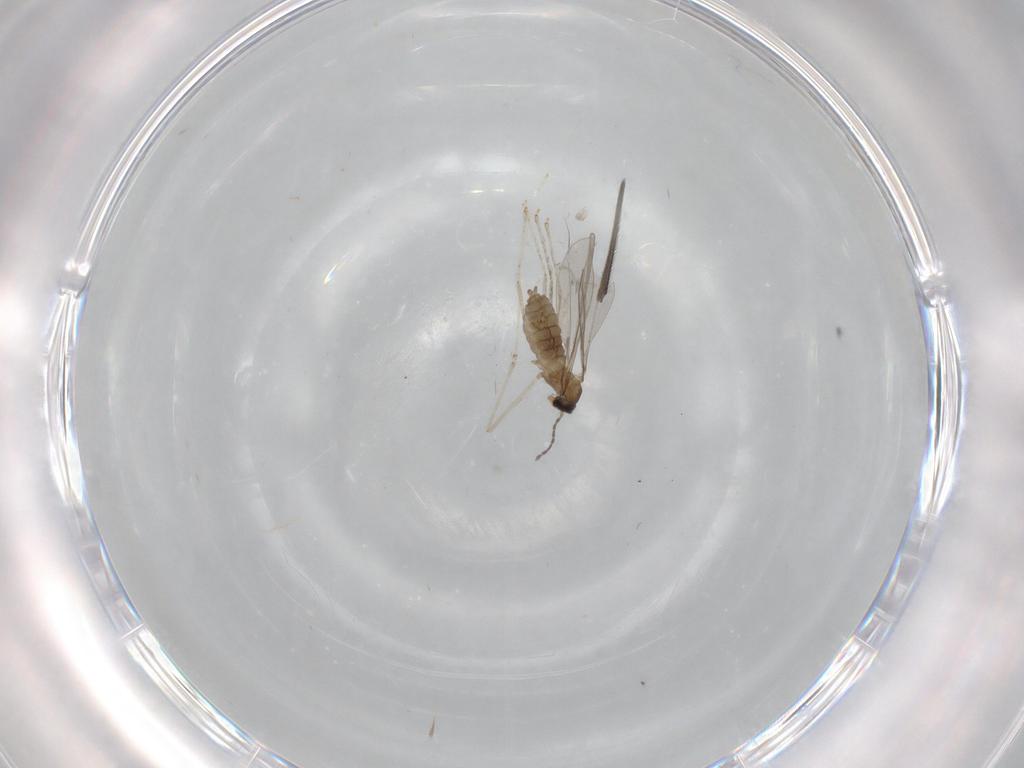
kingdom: Animalia
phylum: Arthropoda
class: Insecta
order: Diptera
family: Cecidomyiidae
